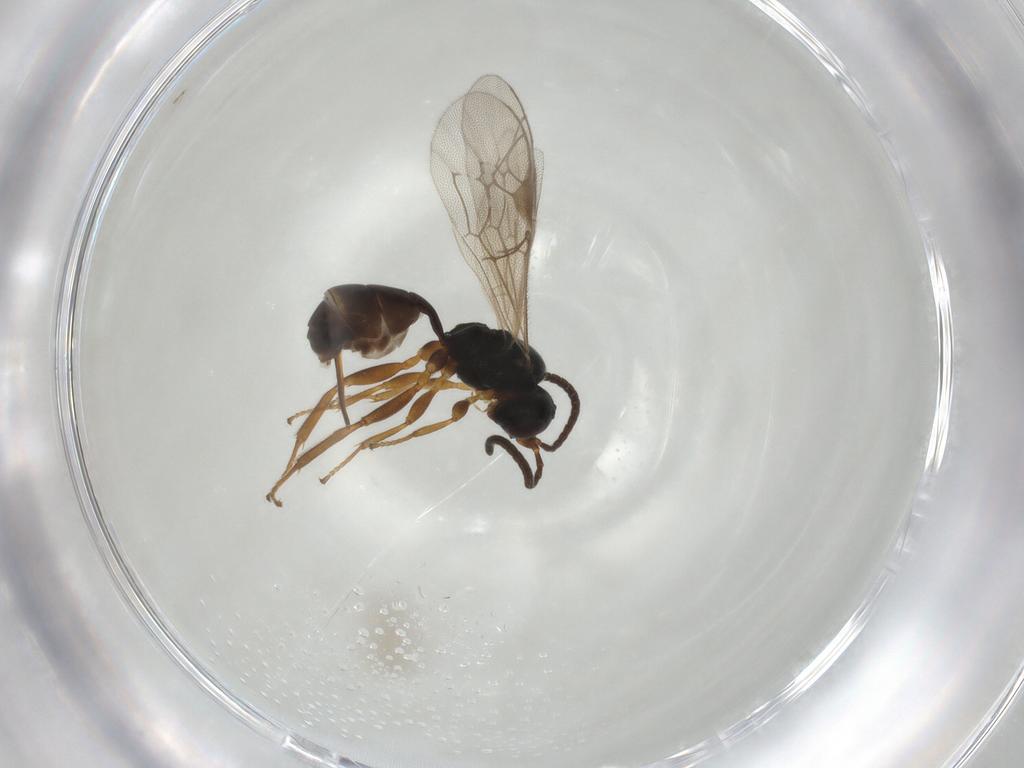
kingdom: Animalia
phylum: Arthropoda
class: Insecta
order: Hymenoptera
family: Ichneumonidae
